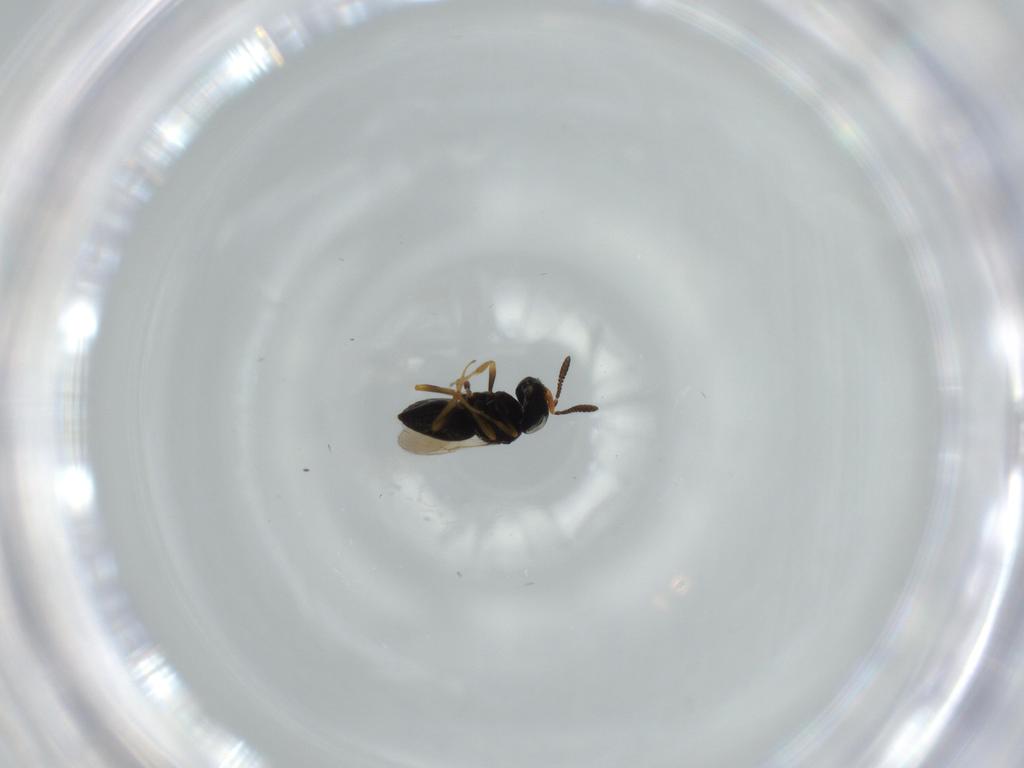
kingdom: Animalia
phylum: Arthropoda
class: Insecta
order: Hymenoptera
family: Scelionidae
